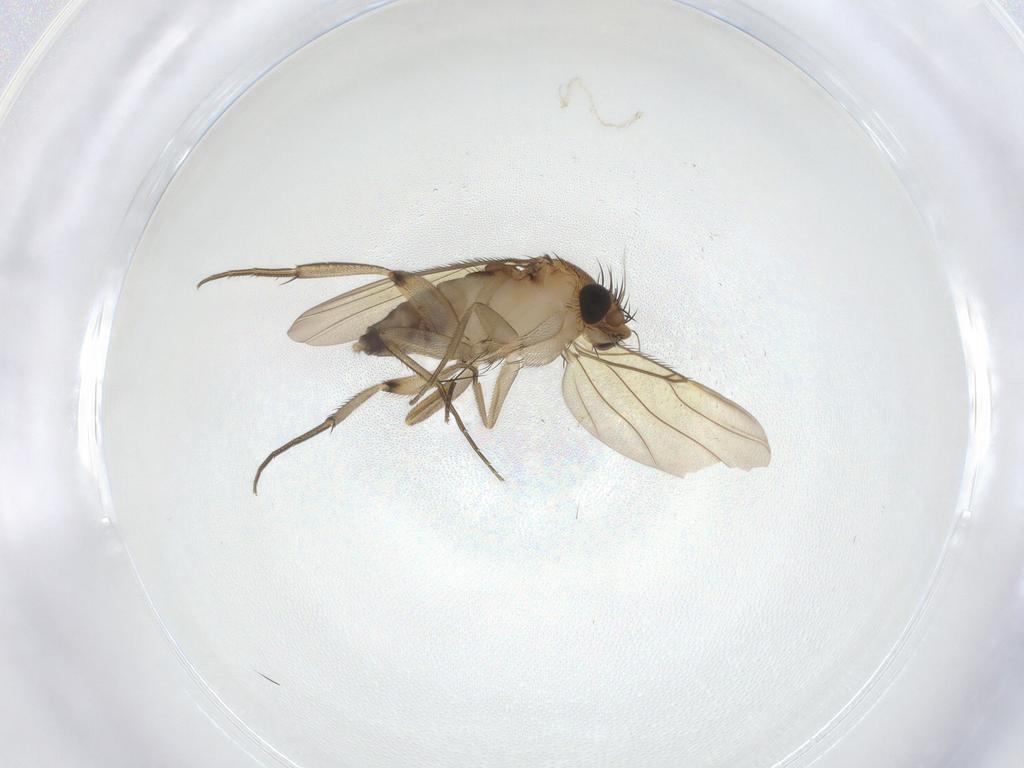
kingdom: Animalia
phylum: Arthropoda
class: Insecta
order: Diptera
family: Phoridae
